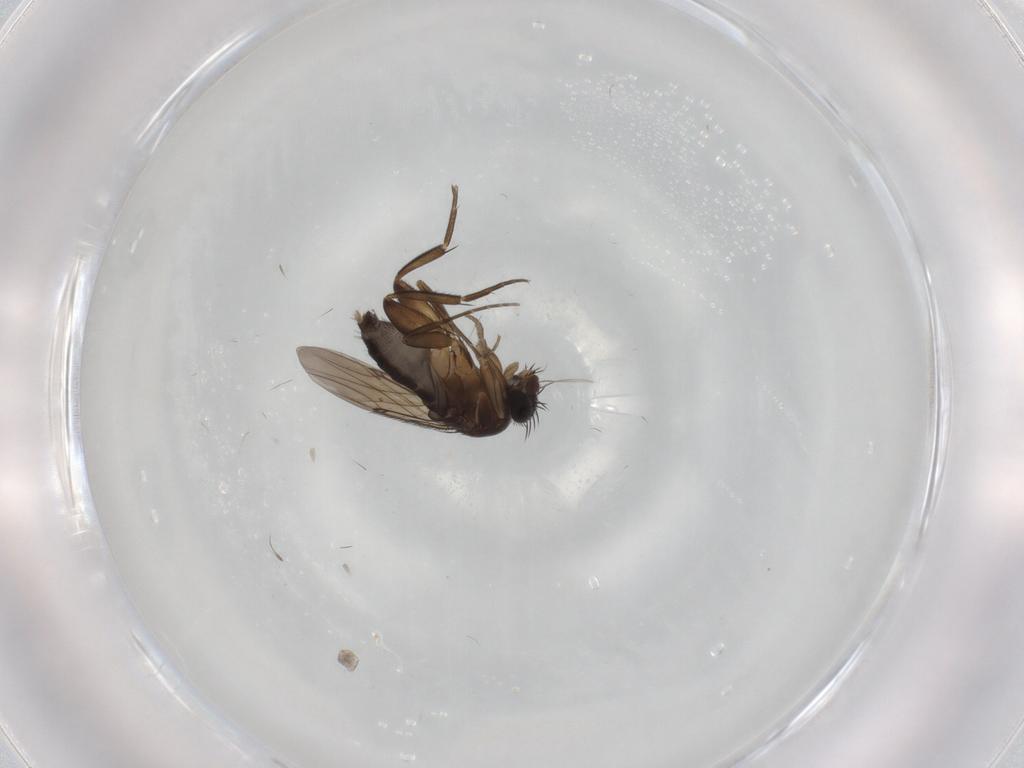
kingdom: Animalia
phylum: Arthropoda
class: Insecta
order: Diptera
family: Phoridae
